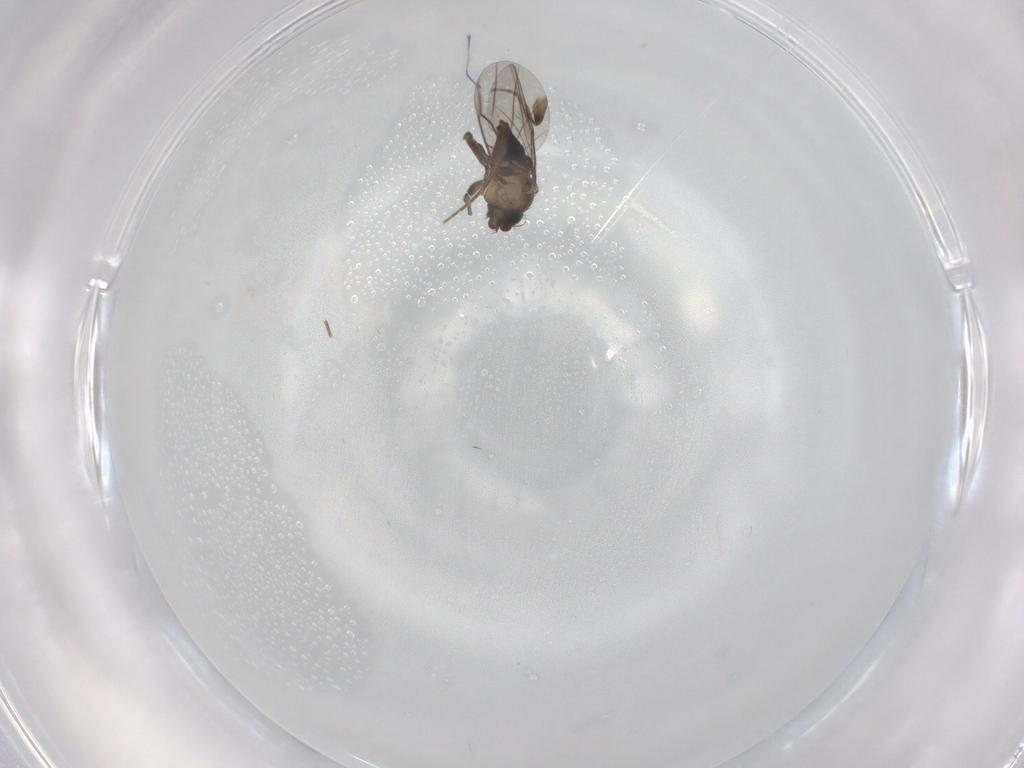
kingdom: Animalia
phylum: Arthropoda
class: Insecta
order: Diptera
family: Phoridae
